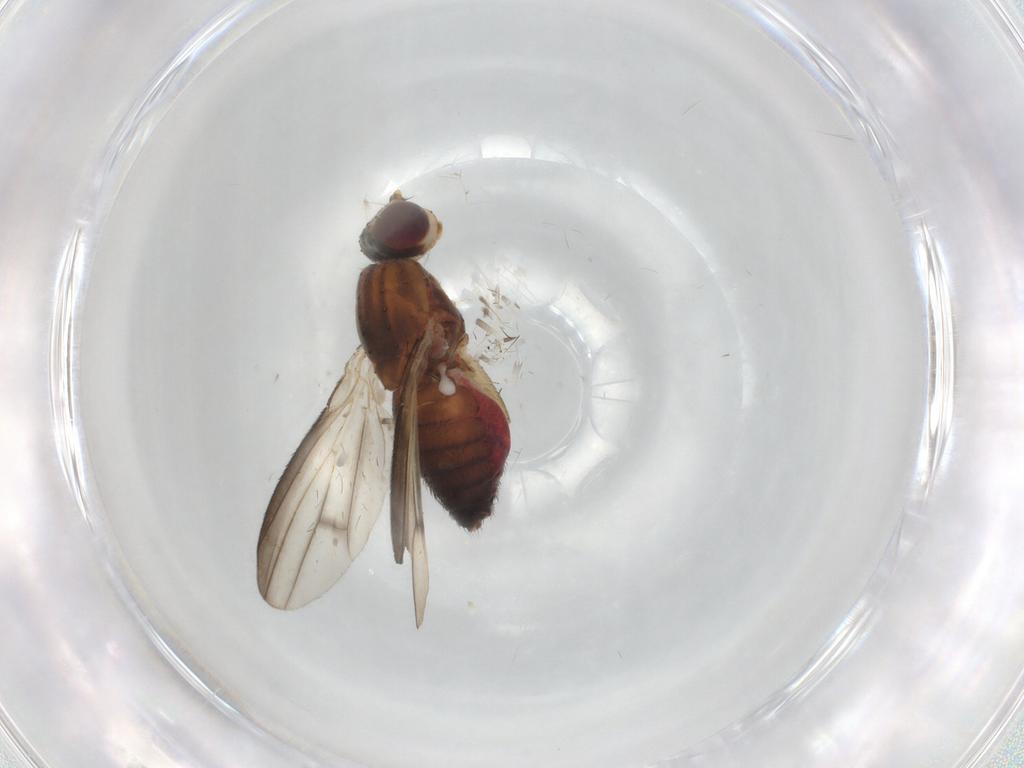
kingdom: Animalia
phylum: Arthropoda
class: Insecta
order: Diptera
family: Heleomyzidae
